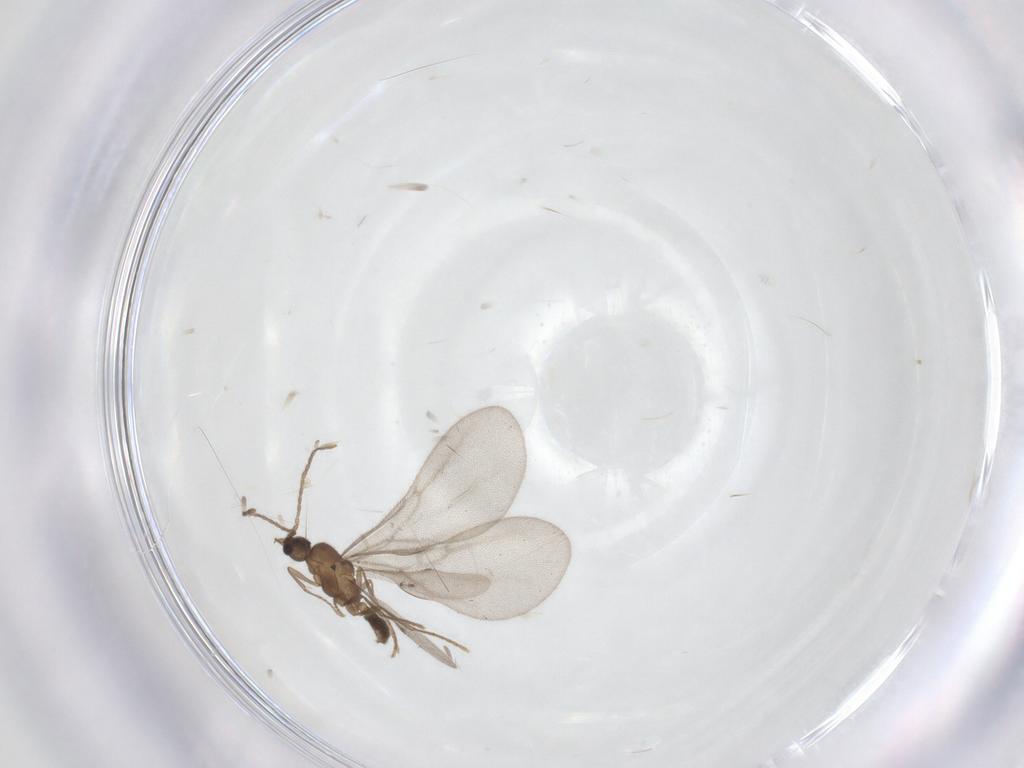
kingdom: Animalia
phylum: Arthropoda
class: Insecta
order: Hymenoptera
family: Formicidae
